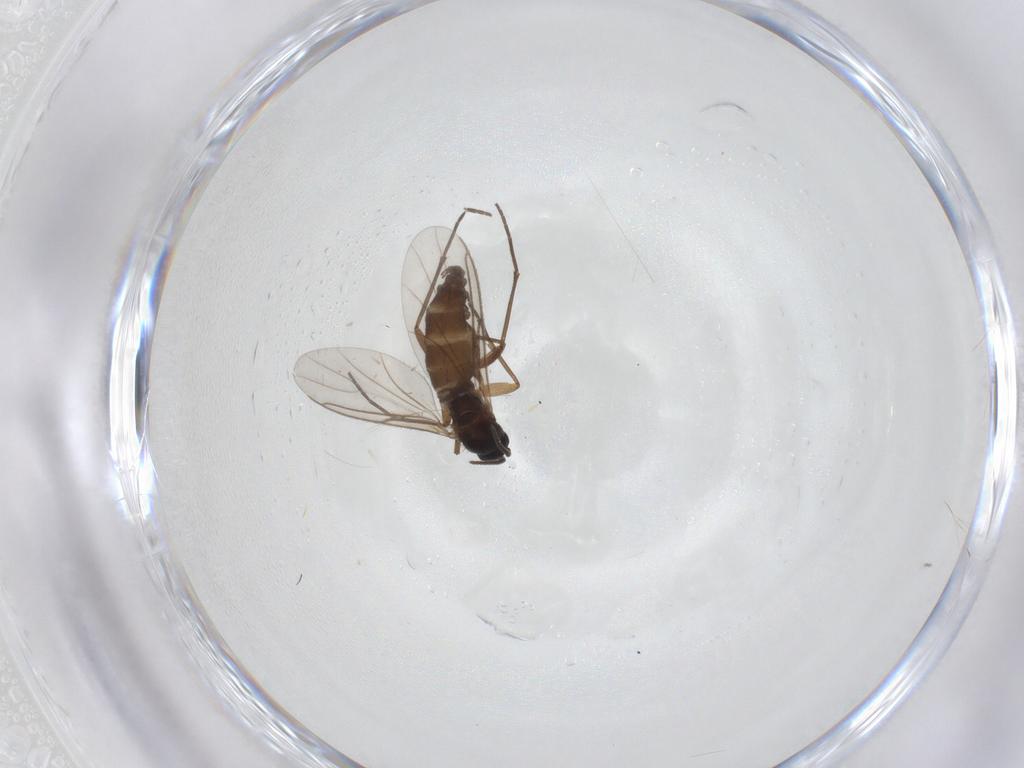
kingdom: Animalia
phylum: Arthropoda
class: Insecta
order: Diptera
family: Sciaridae
